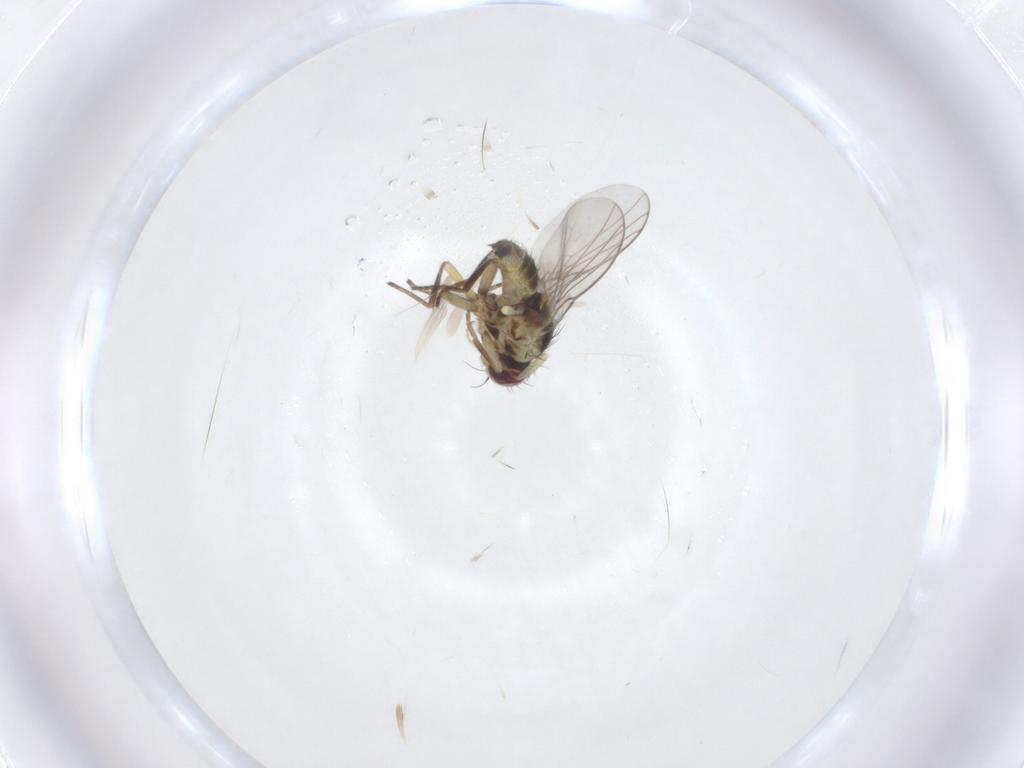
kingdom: Animalia
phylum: Arthropoda
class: Insecta
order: Diptera
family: Agromyzidae
